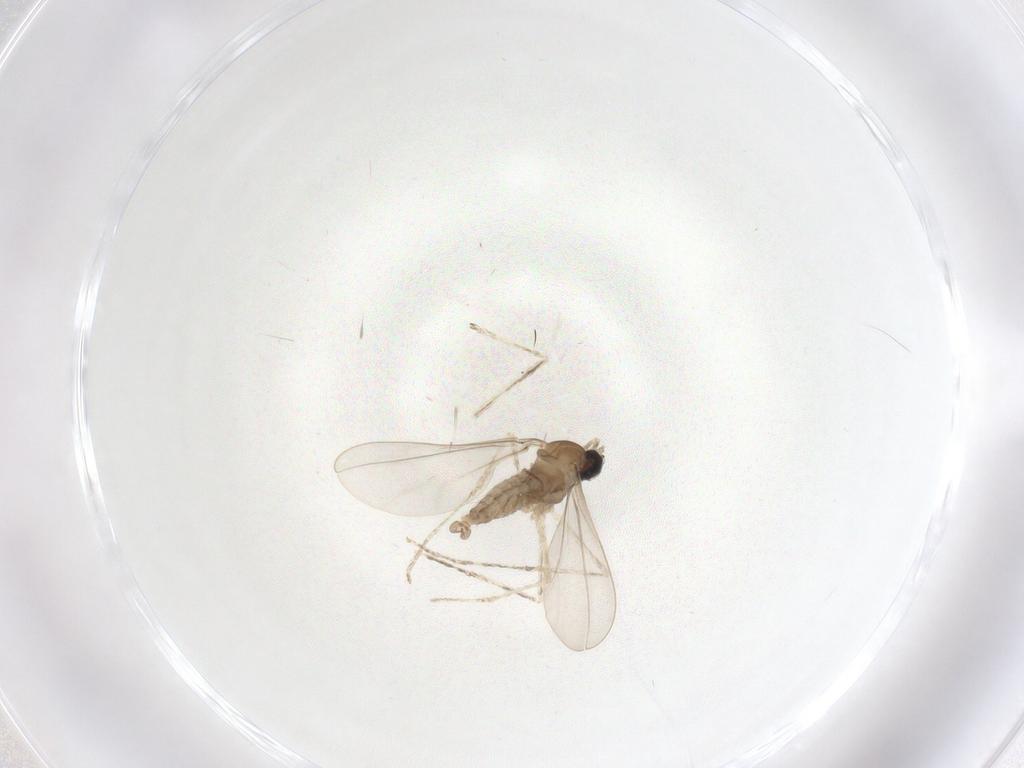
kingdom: Animalia
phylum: Arthropoda
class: Insecta
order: Diptera
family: Cecidomyiidae
